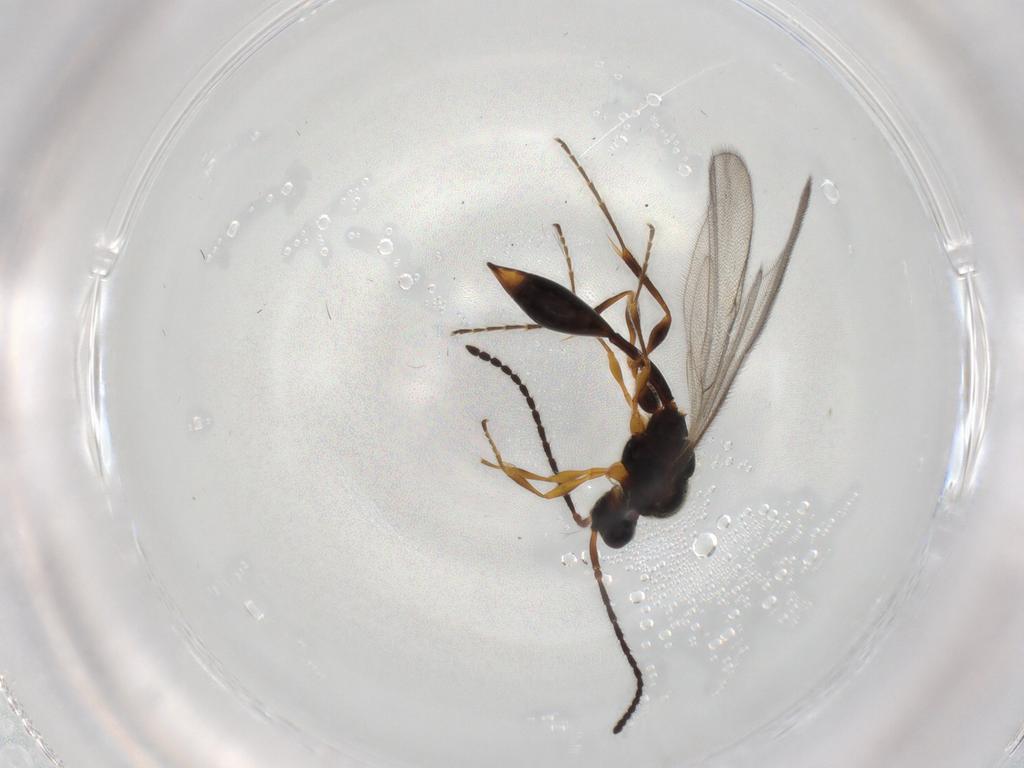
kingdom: Animalia
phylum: Arthropoda
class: Insecta
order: Hymenoptera
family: Diapriidae
